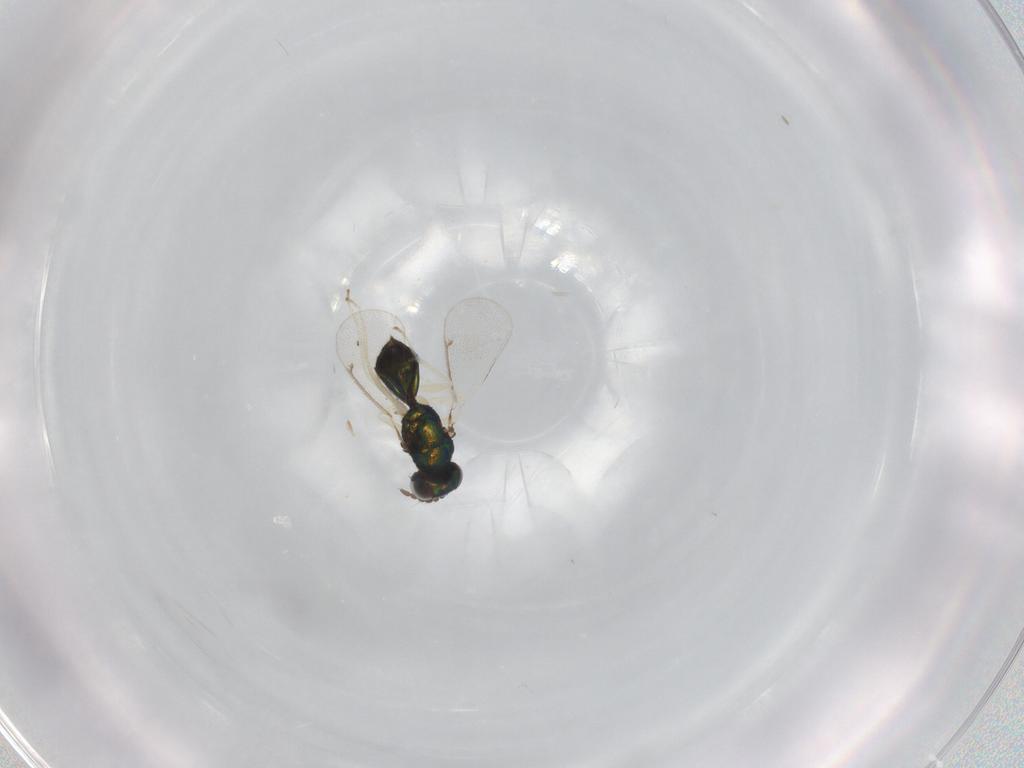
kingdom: Animalia
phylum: Arthropoda
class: Insecta
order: Hymenoptera
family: Eulophidae
